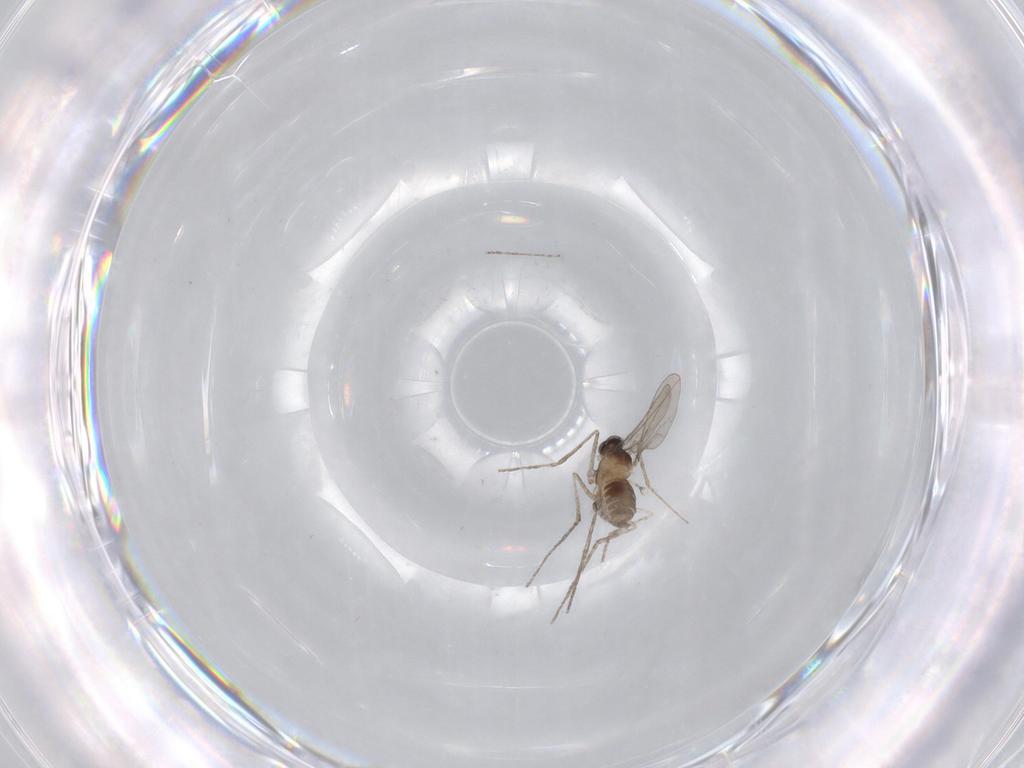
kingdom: Animalia
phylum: Arthropoda
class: Insecta
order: Diptera
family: Cecidomyiidae
